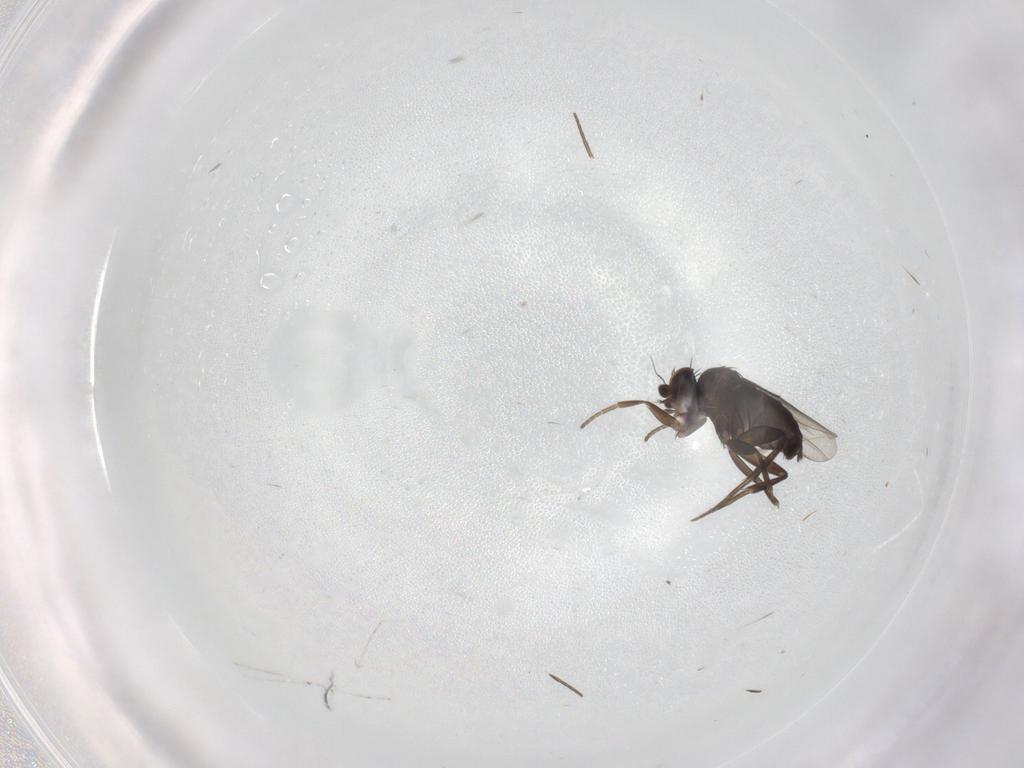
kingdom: Animalia
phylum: Arthropoda
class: Insecta
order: Diptera
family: Phoridae
